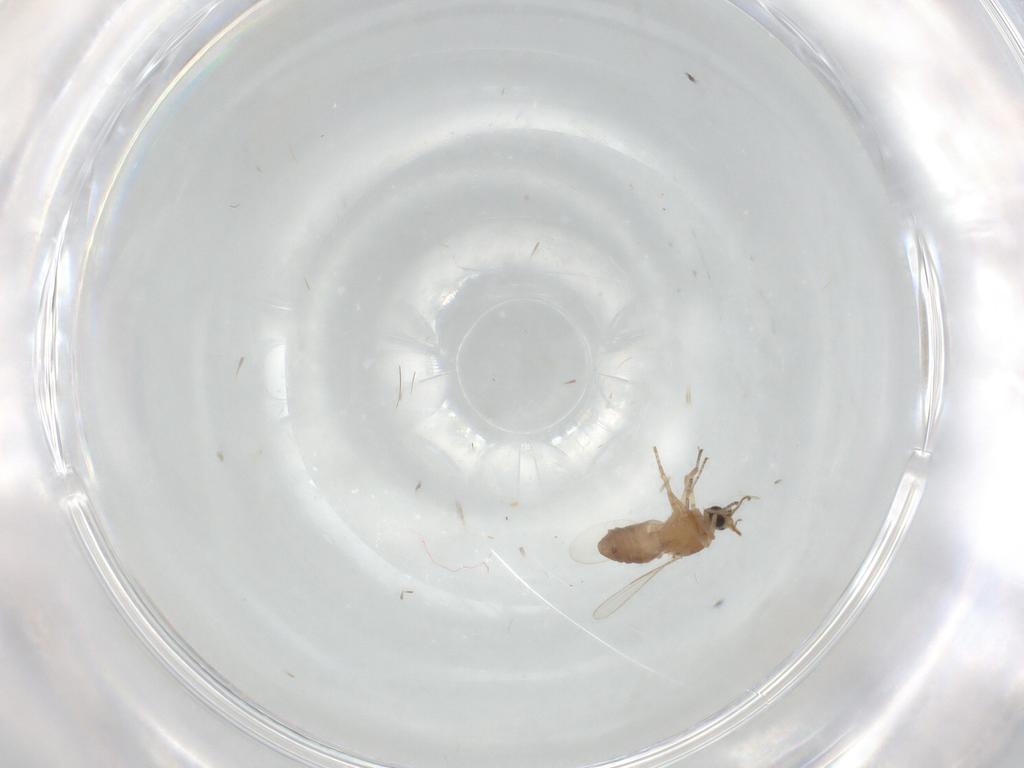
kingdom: Animalia
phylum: Arthropoda
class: Insecta
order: Diptera
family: Ceratopogonidae
